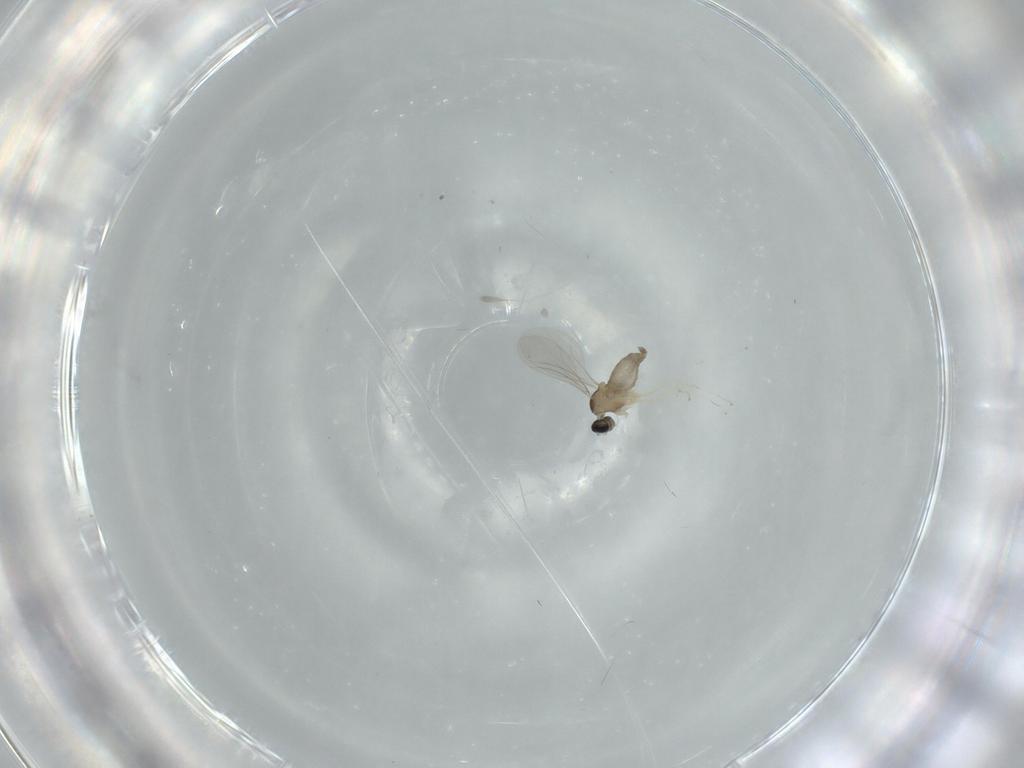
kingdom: Animalia
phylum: Arthropoda
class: Insecta
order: Diptera
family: Cecidomyiidae
